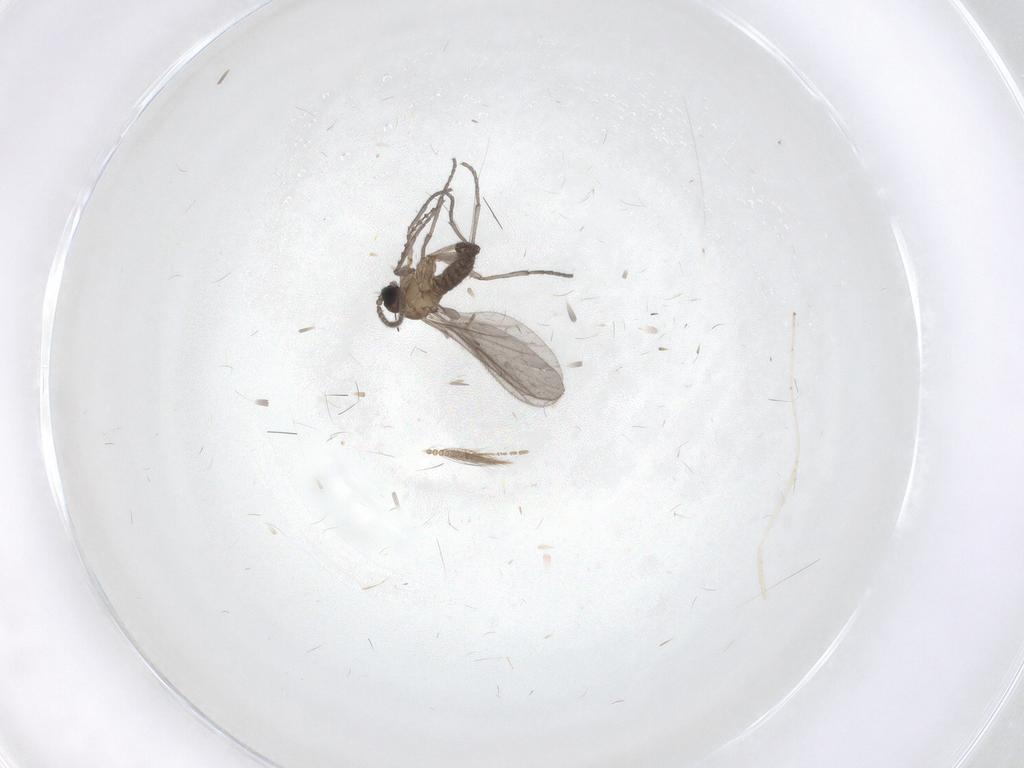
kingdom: Animalia
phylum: Arthropoda
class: Insecta
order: Diptera
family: Sciaridae
